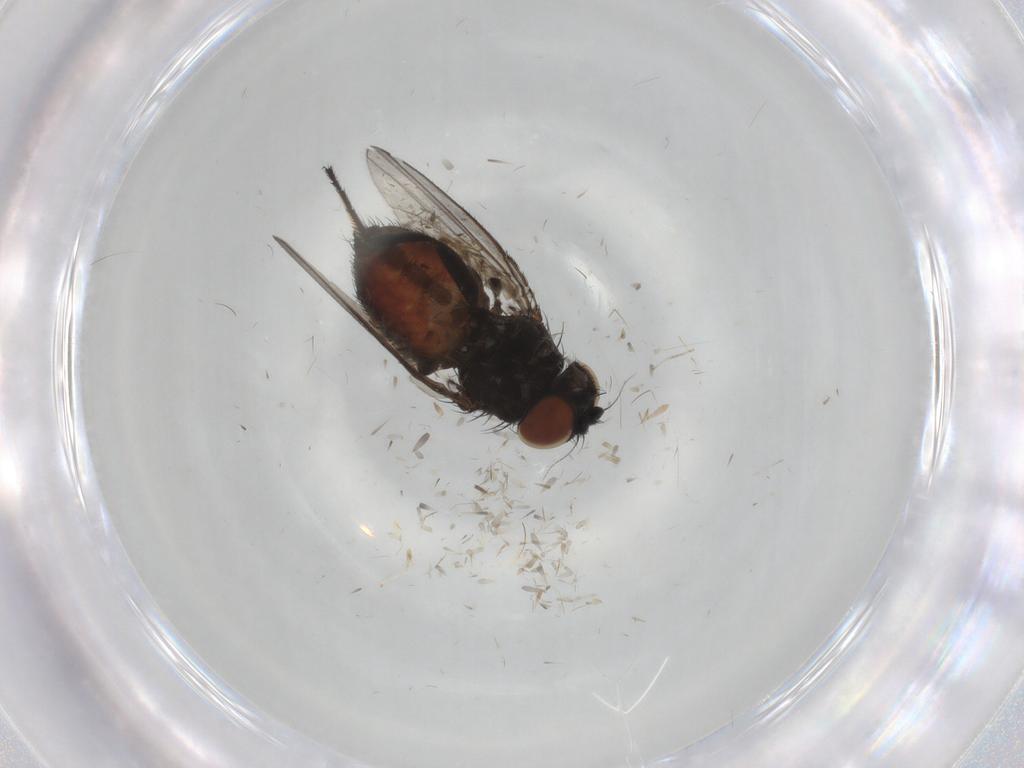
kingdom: Animalia
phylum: Arthropoda
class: Insecta
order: Diptera
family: Milichiidae
